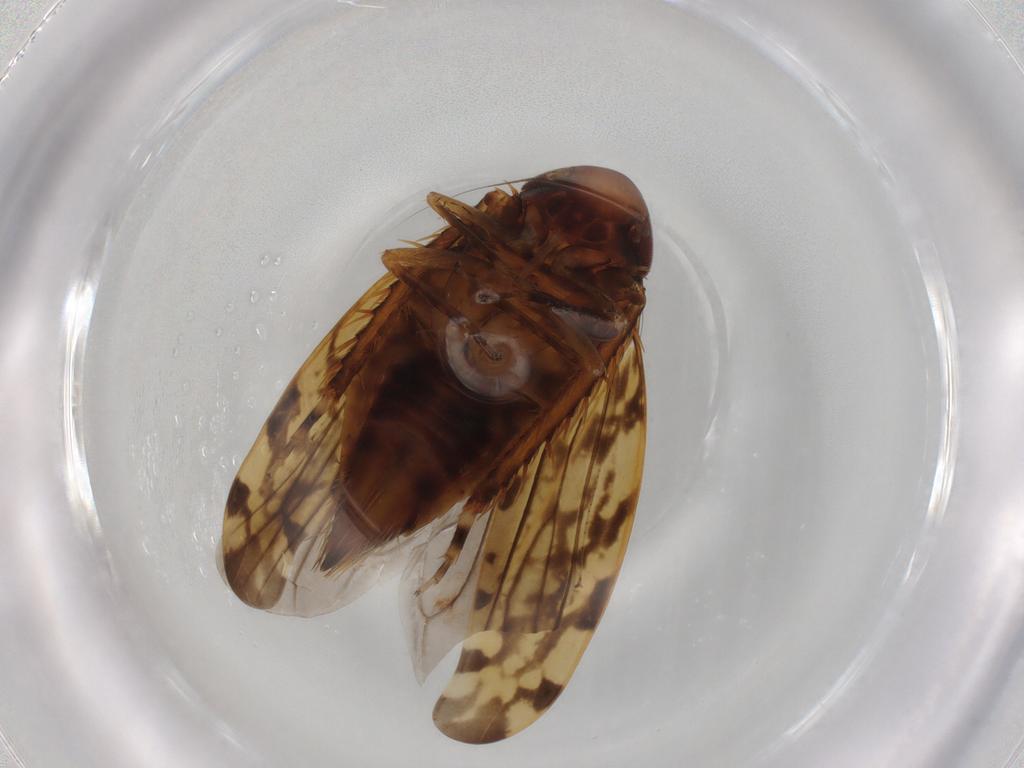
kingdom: Animalia
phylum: Arthropoda
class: Insecta
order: Hemiptera
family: Cicadellidae
